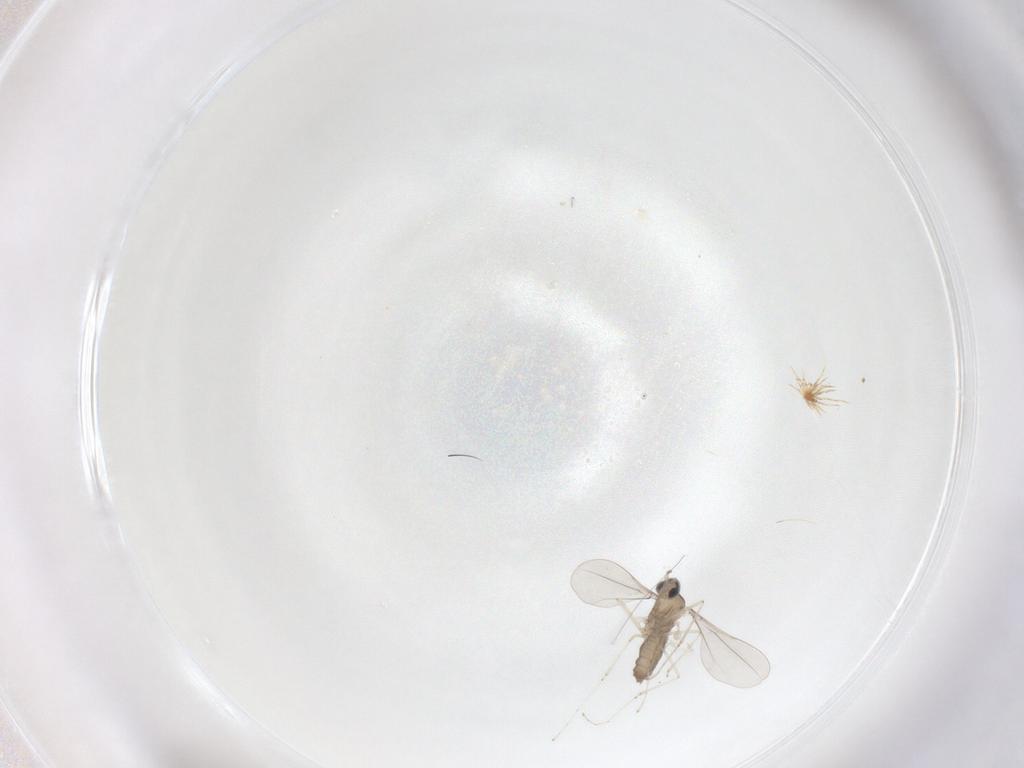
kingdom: Animalia
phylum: Arthropoda
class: Insecta
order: Diptera
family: Cecidomyiidae
